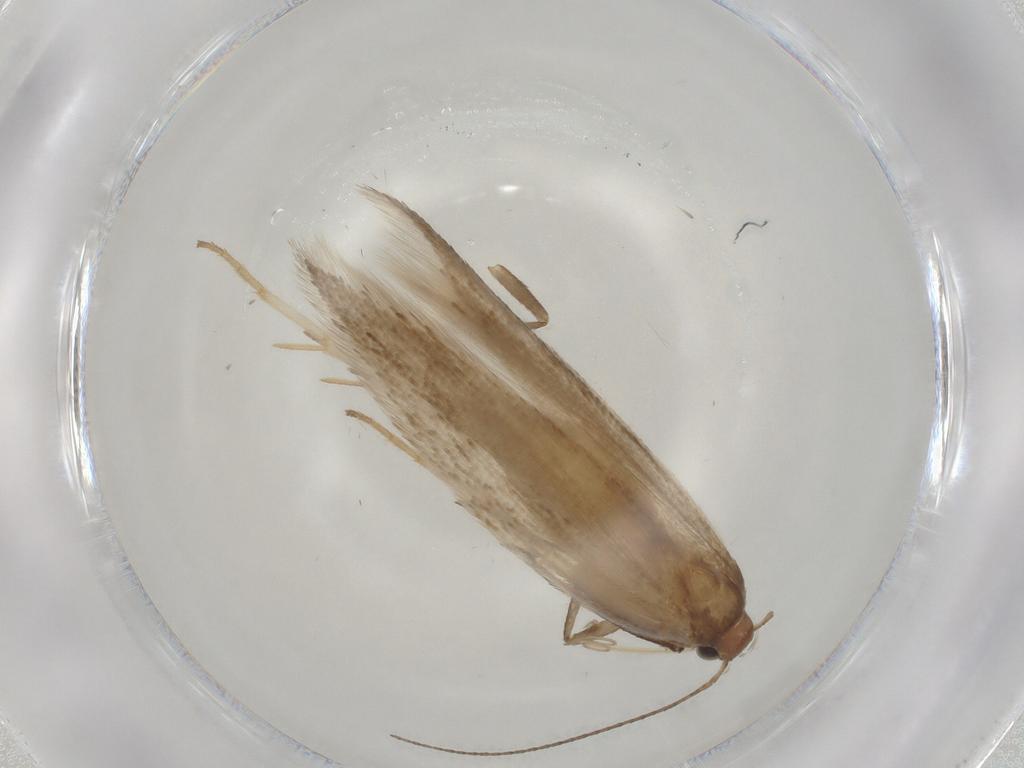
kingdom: Animalia
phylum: Arthropoda
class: Insecta
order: Lepidoptera
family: Gelechiidae
